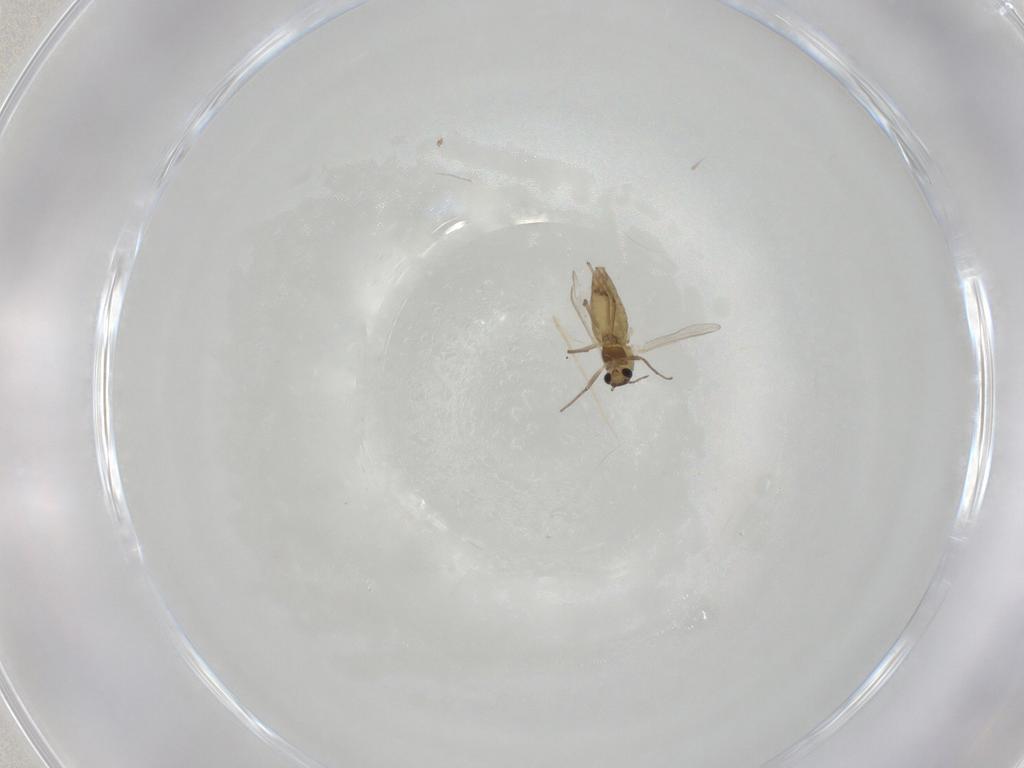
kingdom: Animalia
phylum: Arthropoda
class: Insecta
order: Diptera
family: Chironomidae
